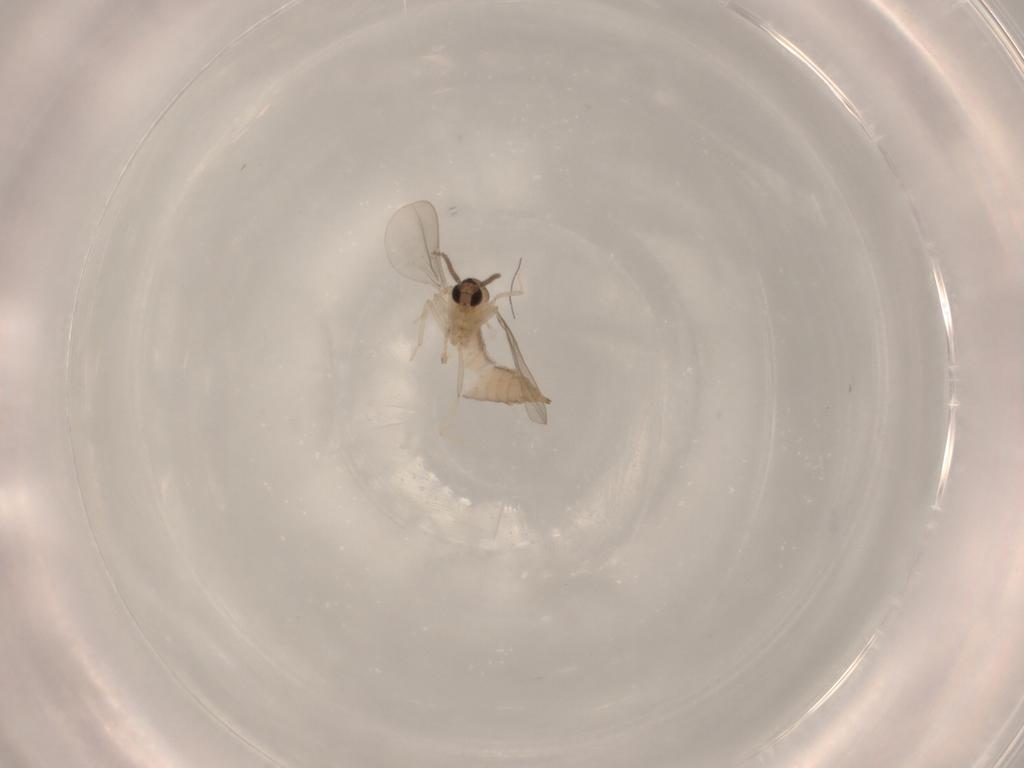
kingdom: Animalia
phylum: Arthropoda
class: Insecta
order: Diptera
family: Cecidomyiidae
